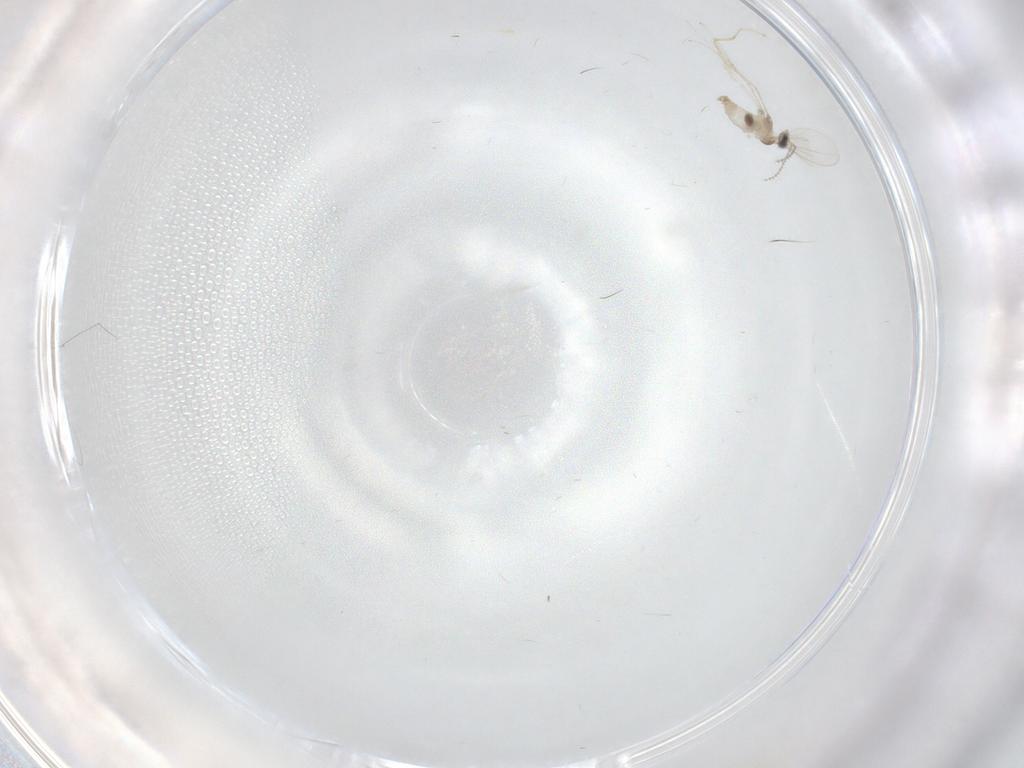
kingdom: Animalia
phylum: Arthropoda
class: Insecta
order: Diptera
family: Cecidomyiidae
